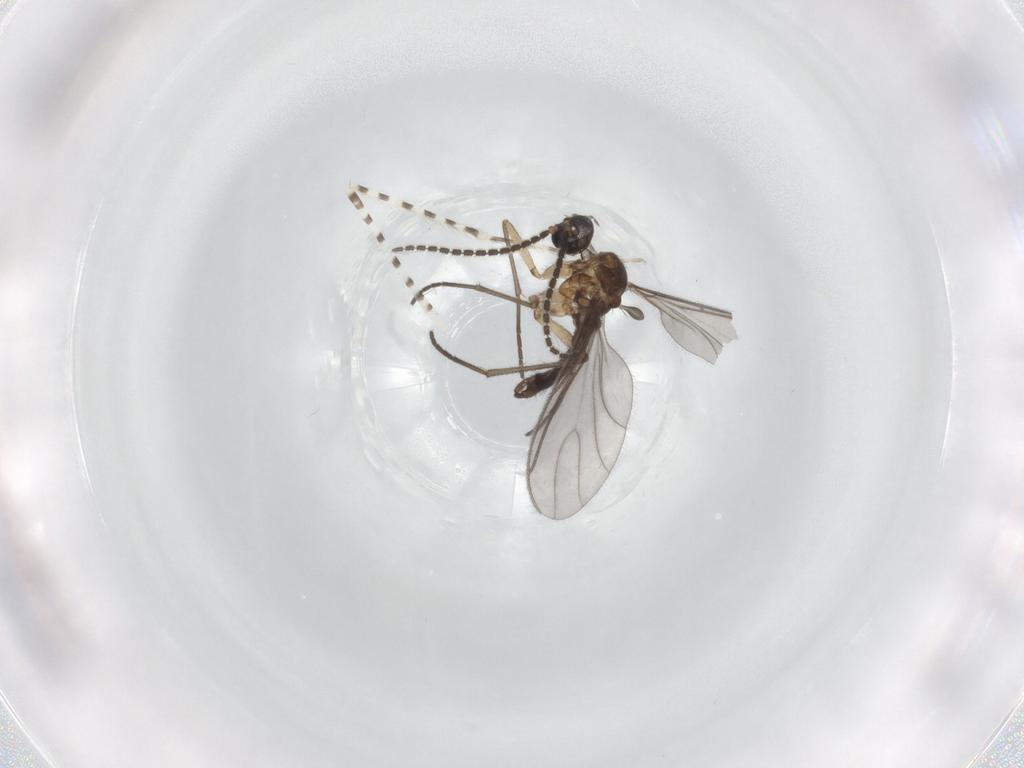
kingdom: Animalia
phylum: Arthropoda
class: Insecta
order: Diptera
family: Sciaridae
